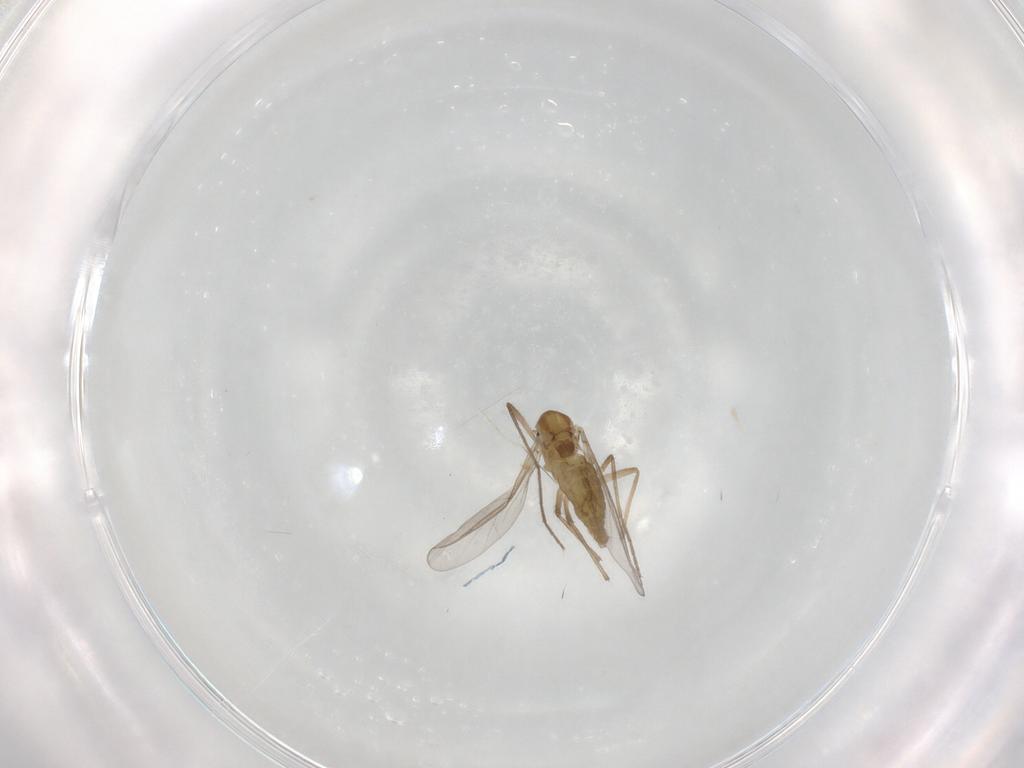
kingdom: Animalia
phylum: Arthropoda
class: Insecta
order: Diptera
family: Chironomidae
